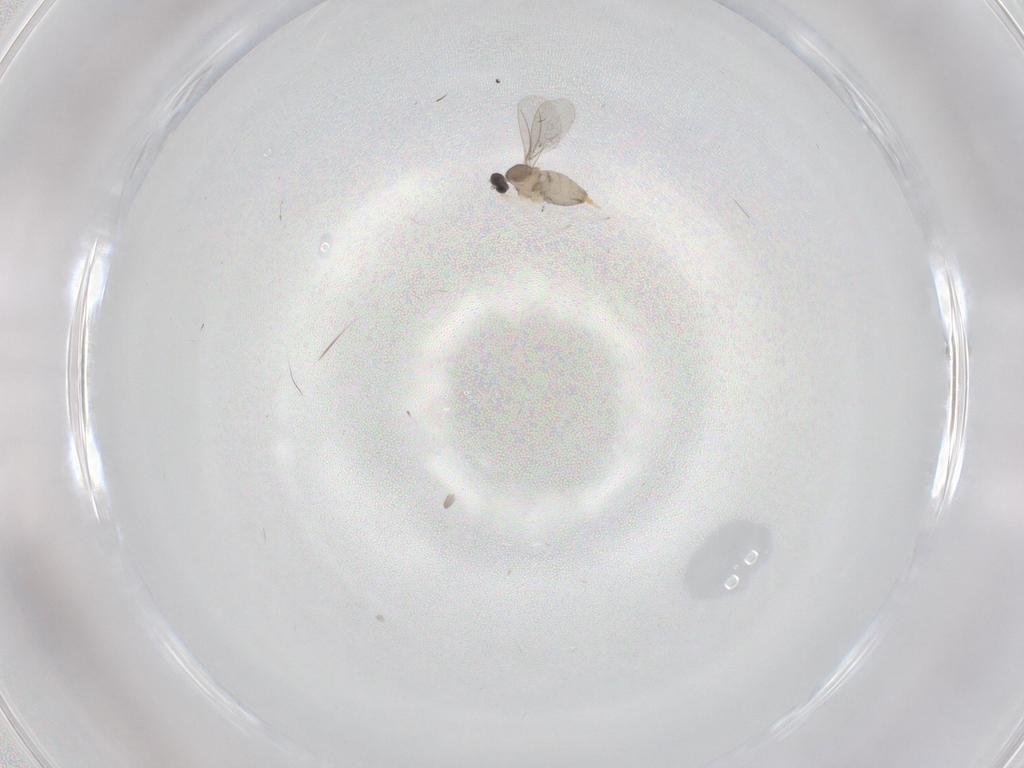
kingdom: Animalia
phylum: Arthropoda
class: Insecta
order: Diptera
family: Cecidomyiidae
